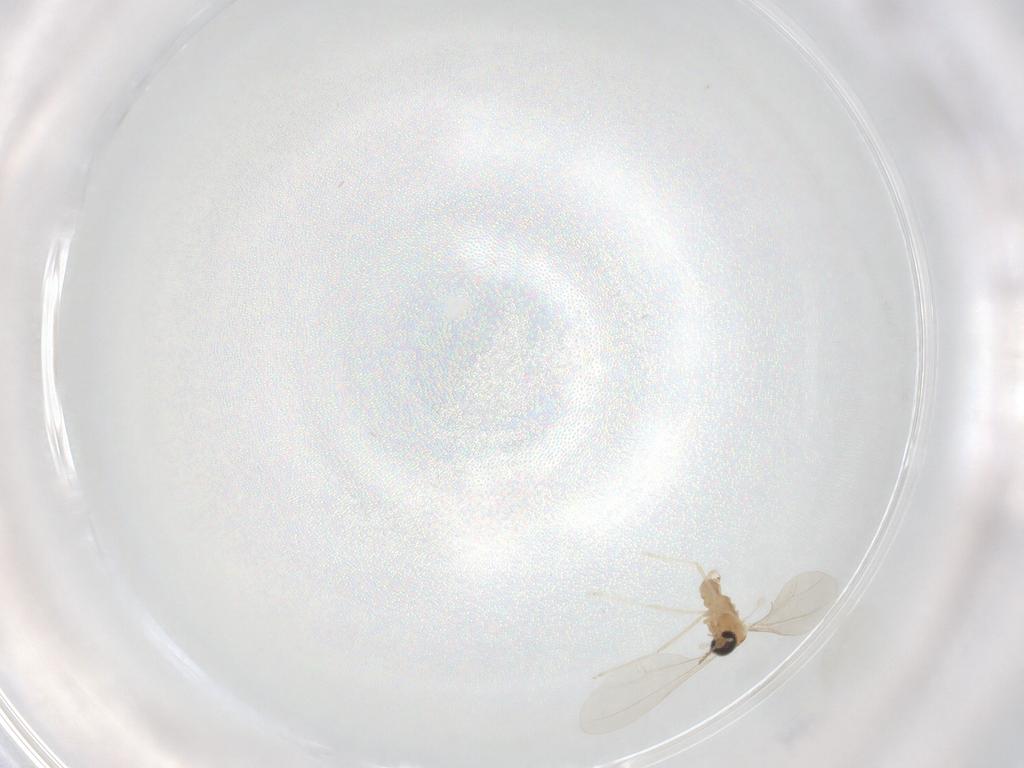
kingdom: Animalia
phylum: Arthropoda
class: Insecta
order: Diptera
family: Cecidomyiidae
